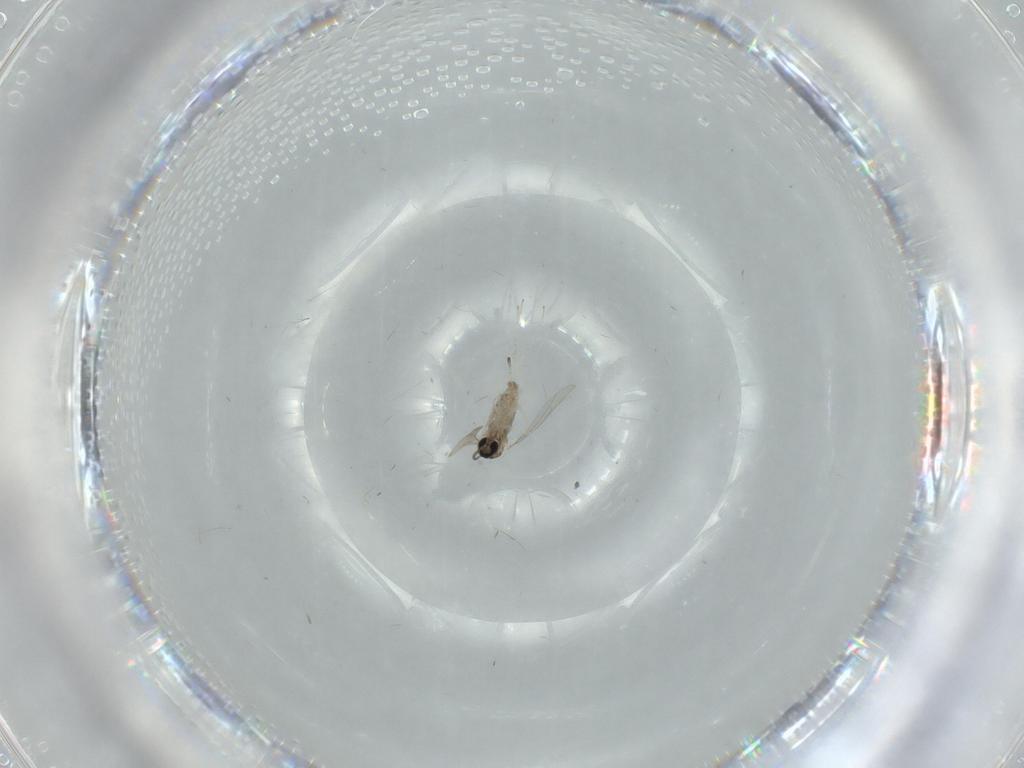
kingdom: Animalia
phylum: Arthropoda
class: Insecta
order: Diptera
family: Cecidomyiidae
